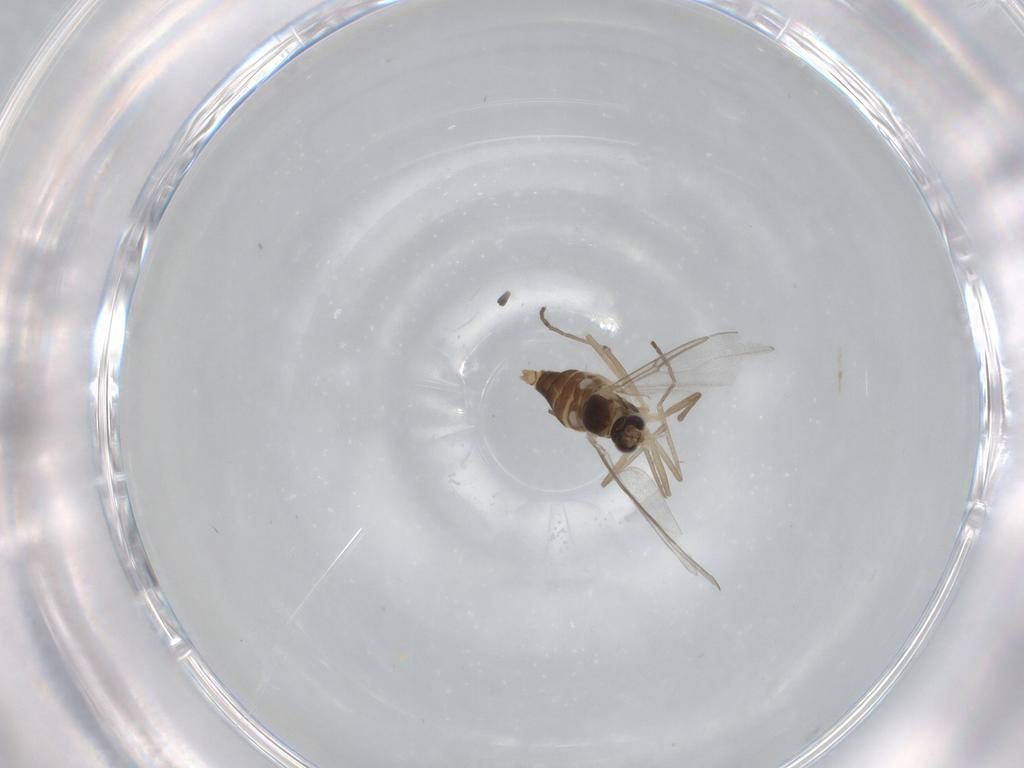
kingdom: Animalia
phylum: Arthropoda
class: Insecta
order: Diptera
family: Cecidomyiidae
